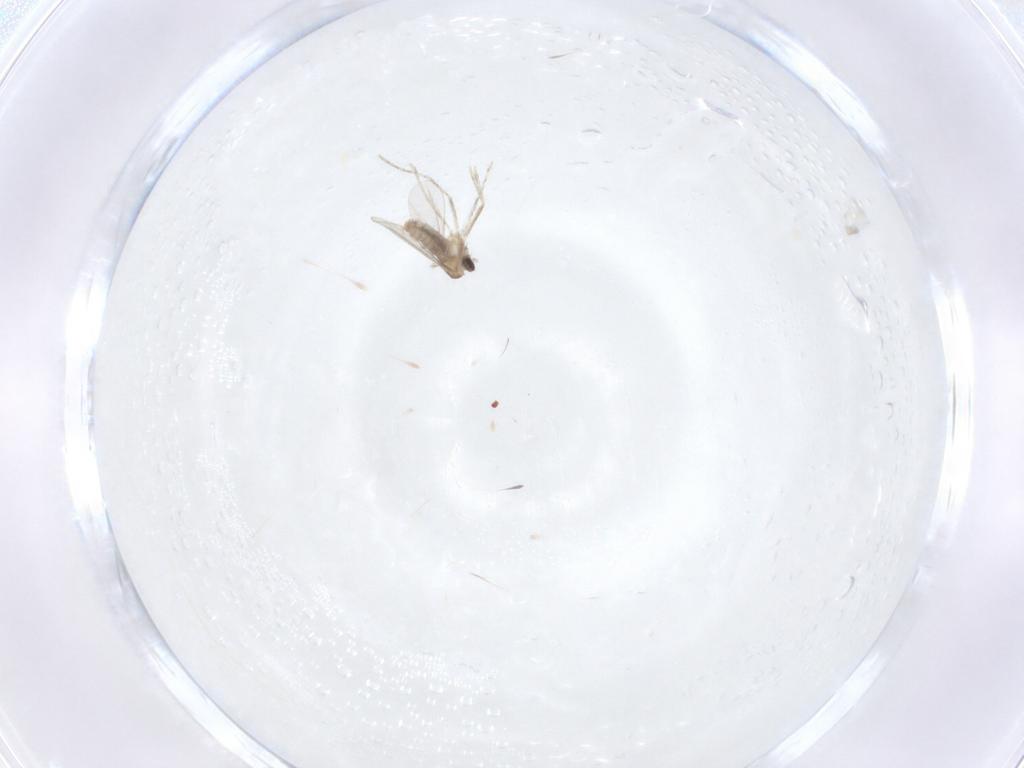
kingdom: Animalia
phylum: Arthropoda
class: Insecta
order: Diptera
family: Cecidomyiidae
